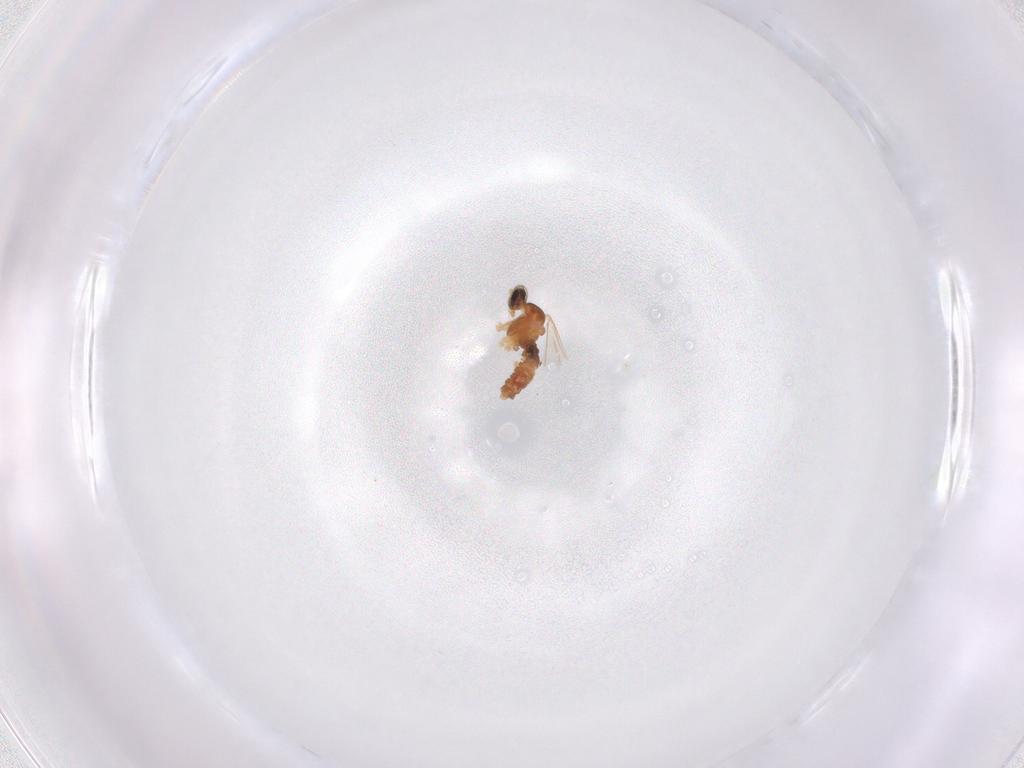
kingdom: Animalia
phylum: Arthropoda
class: Insecta
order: Diptera
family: Cecidomyiidae
